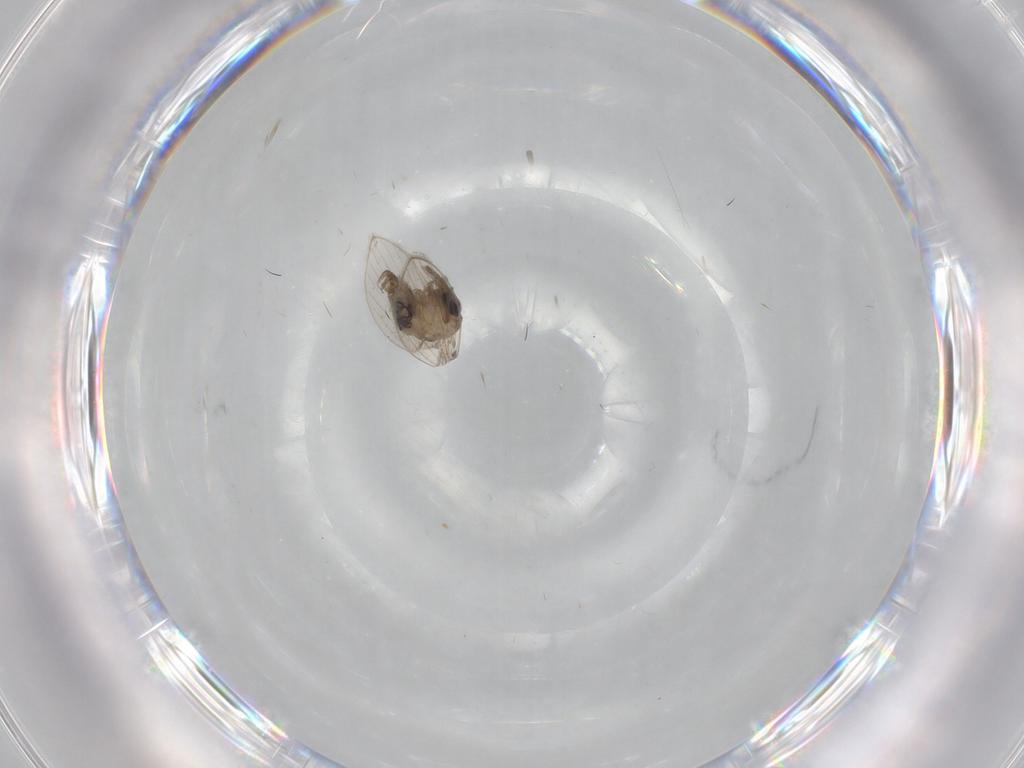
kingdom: Animalia
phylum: Arthropoda
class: Insecta
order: Diptera
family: Psychodidae
